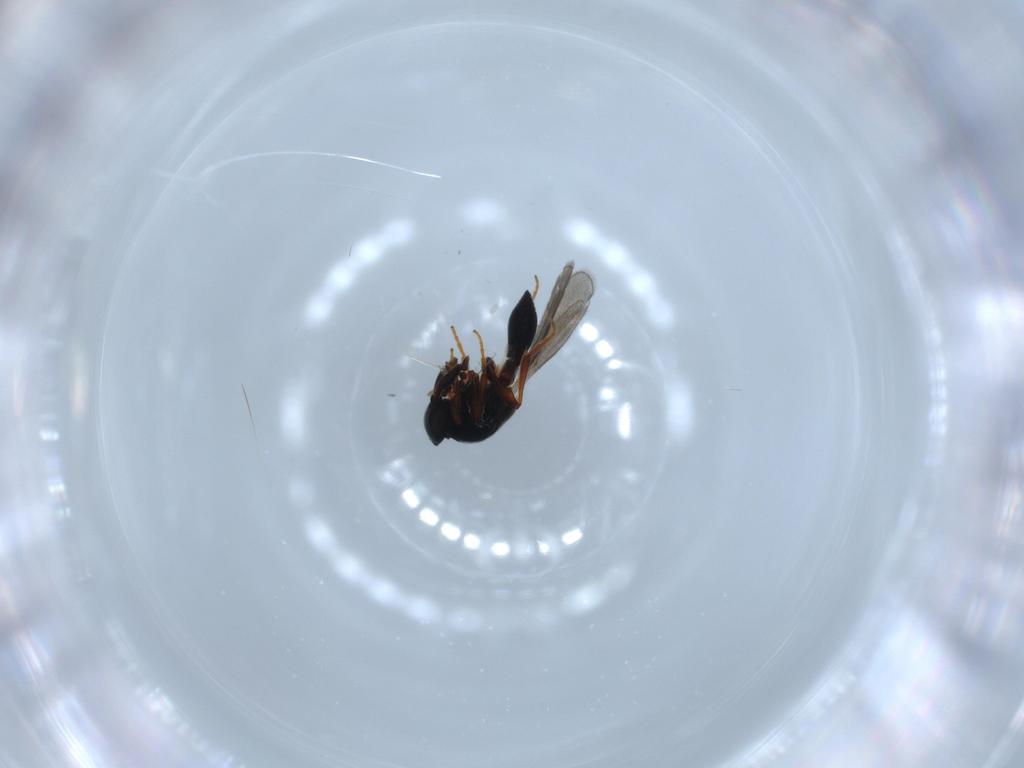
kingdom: Animalia
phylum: Arthropoda
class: Insecta
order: Hymenoptera
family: Platygastridae
